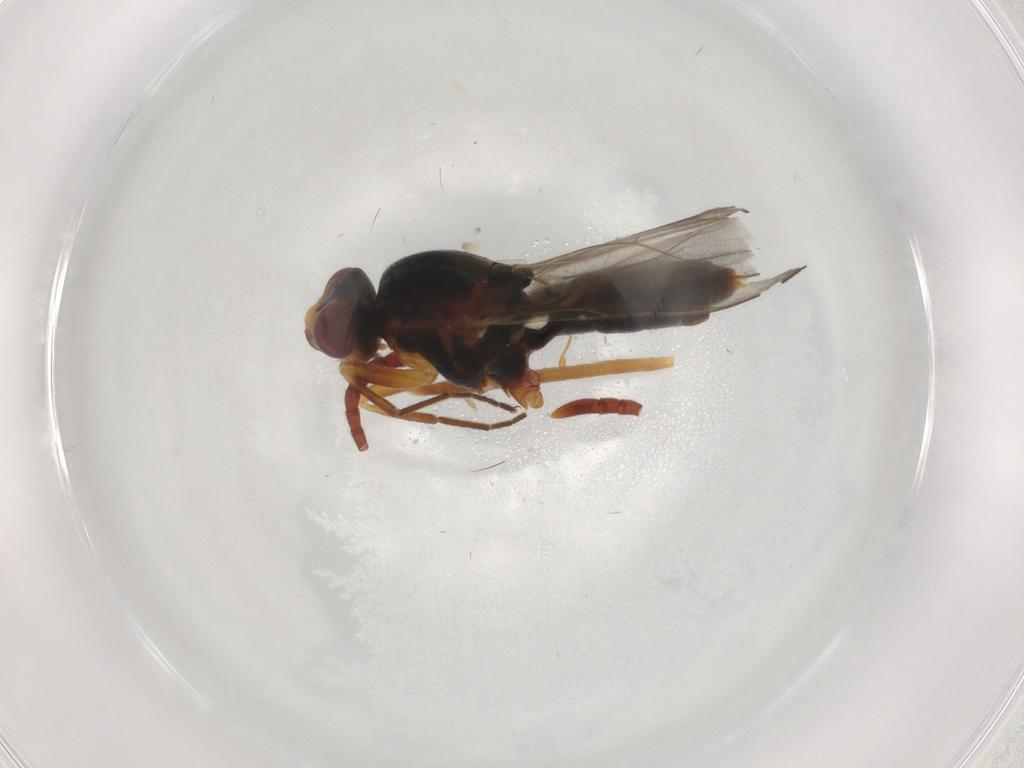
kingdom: Animalia
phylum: Arthropoda
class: Insecta
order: Diptera
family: Chloropidae
